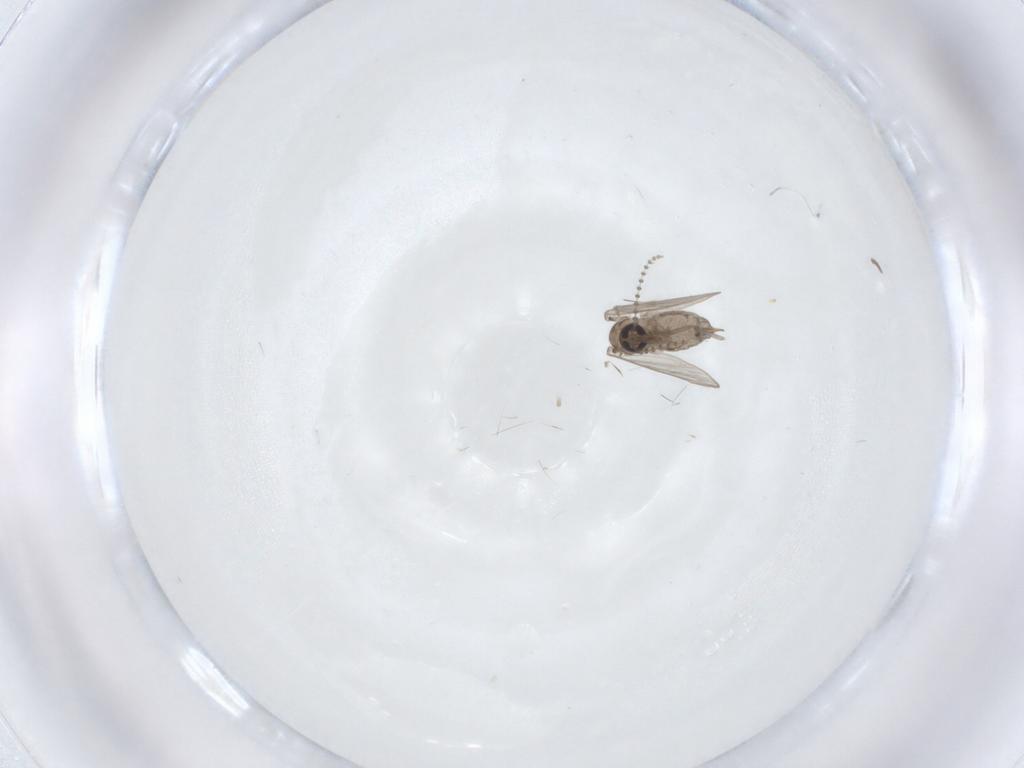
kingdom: Animalia
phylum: Arthropoda
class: Insecta
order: Diptera
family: Psychodidae
